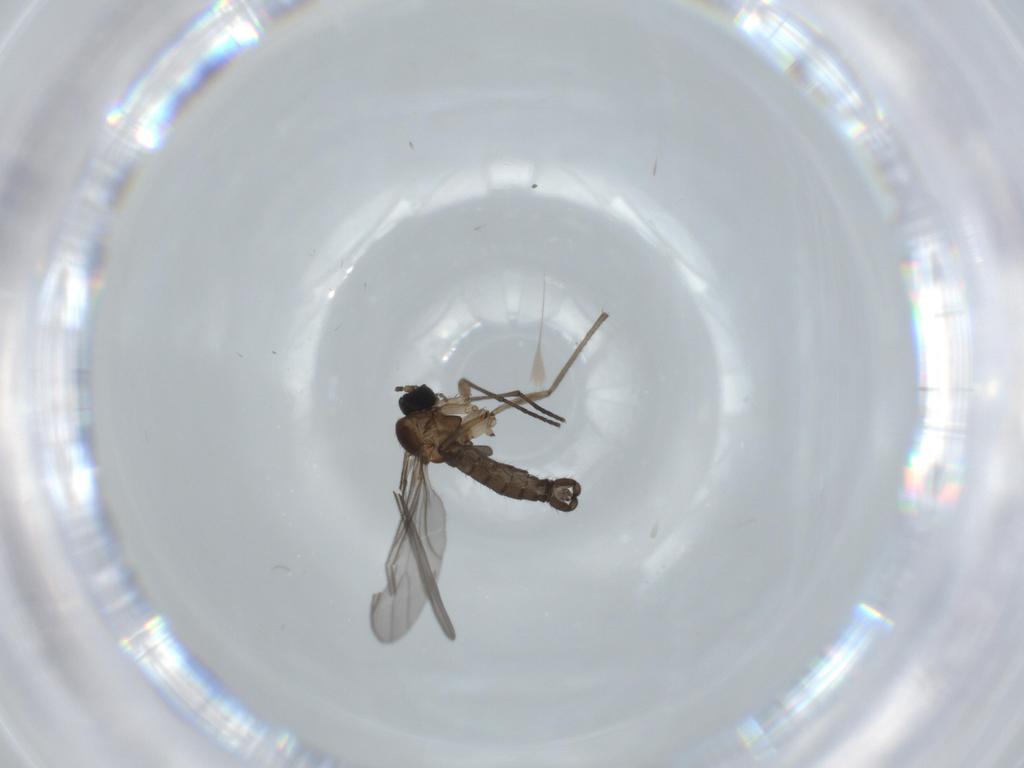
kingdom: Animalia
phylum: Arthropoda
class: Insecta
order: Diptera
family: Sciaridae
